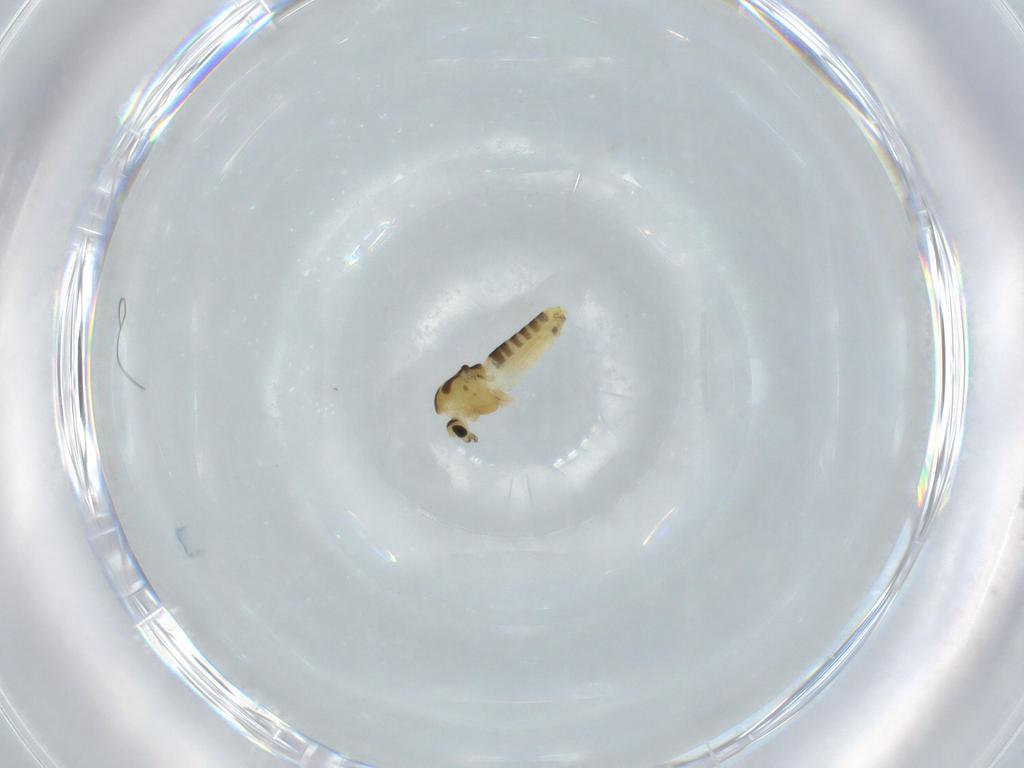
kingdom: Animalia
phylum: Arthropoda
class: Insecta
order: Diptera
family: Chironomidae
